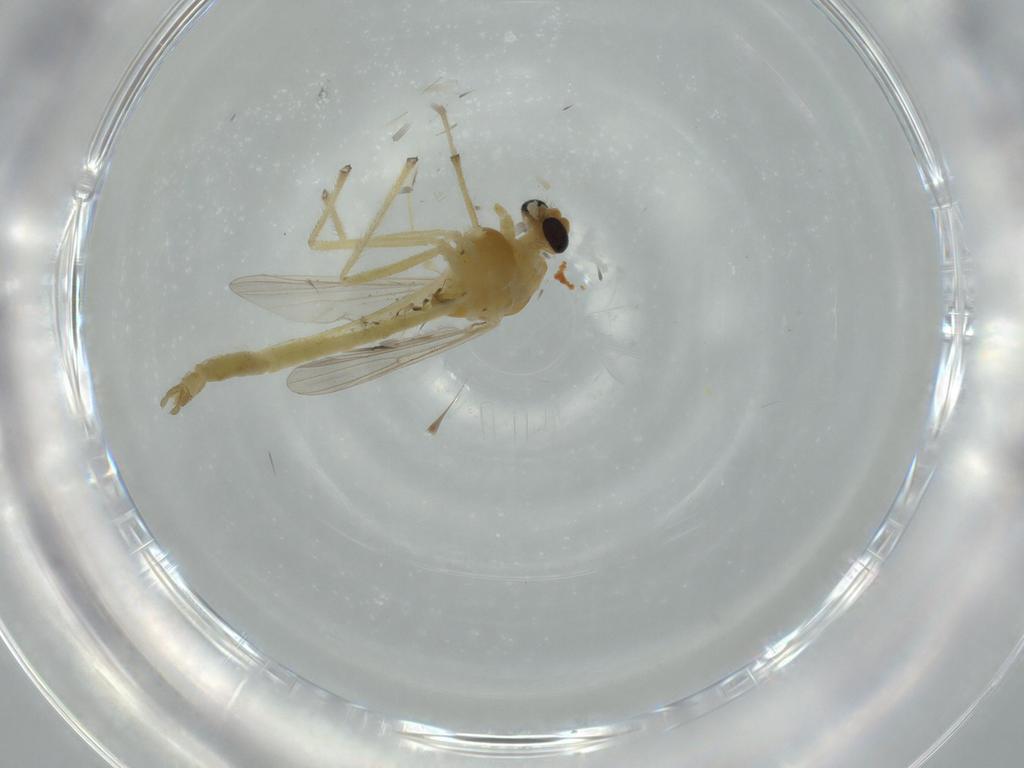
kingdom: Animalia
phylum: Arthropoda
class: Insecta
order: Diptera
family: Chironomidae
